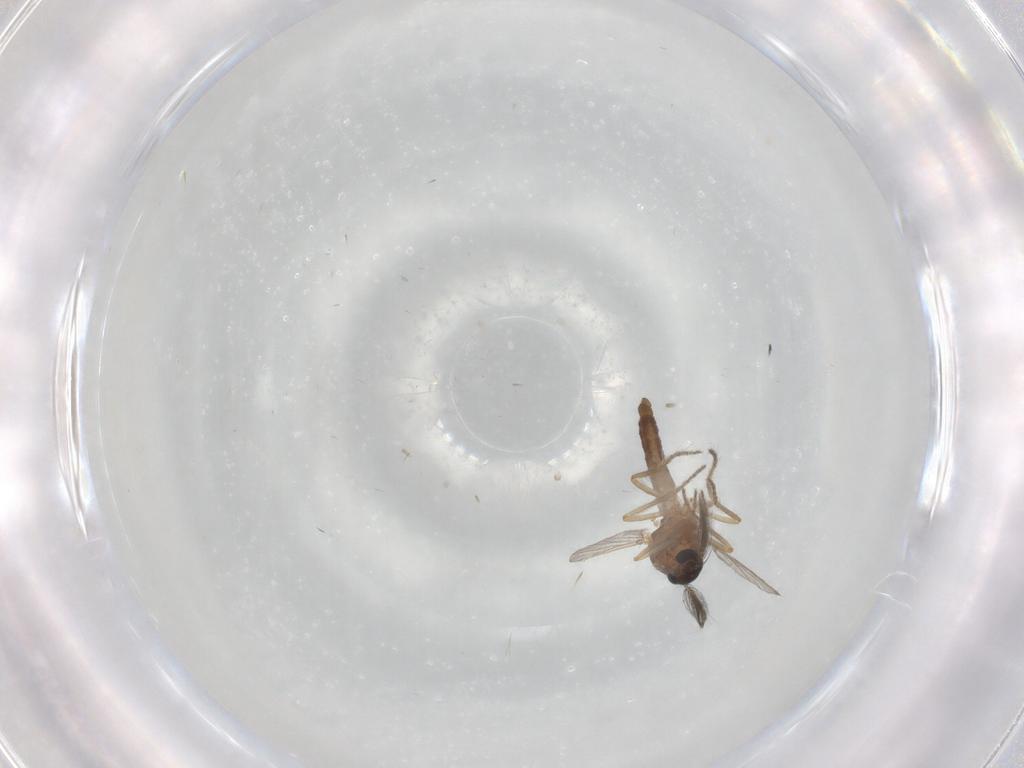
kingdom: Animalia
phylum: Arthropoda
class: Insecta
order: Diptera
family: Ceratopogonidae
